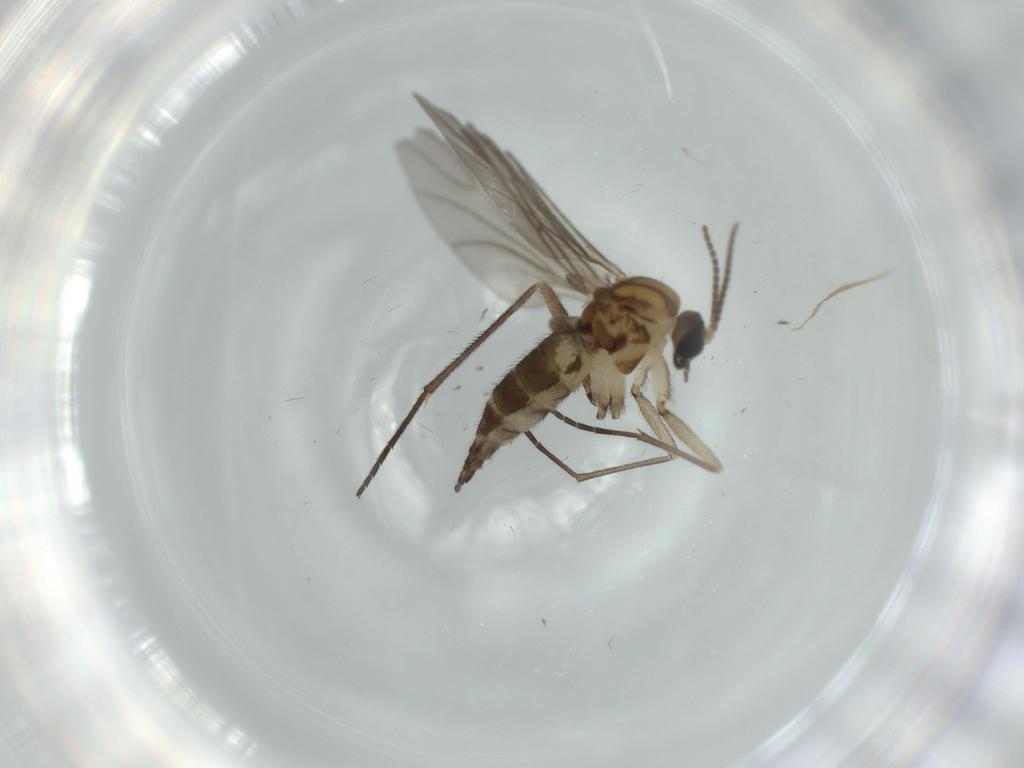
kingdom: Animalia
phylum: Arthropoda
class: Insecta
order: Diptera
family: Sciaridae
